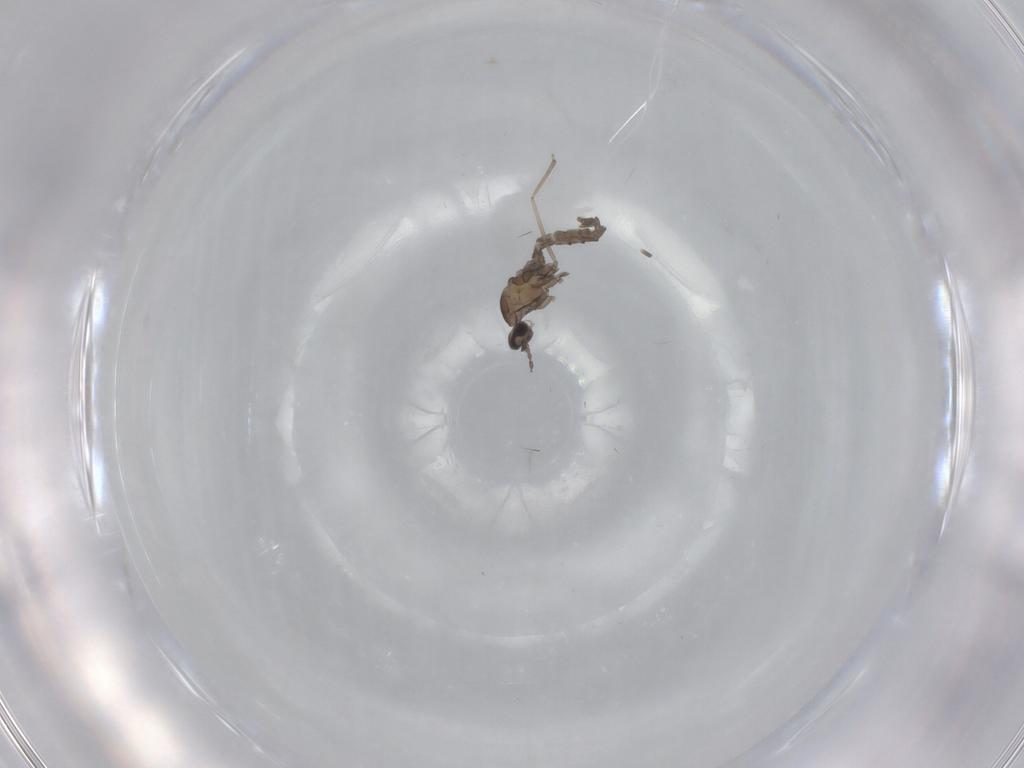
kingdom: Animalia
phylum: Arthropoda
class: Insecta
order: Diptera
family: Cecidomyiidae
